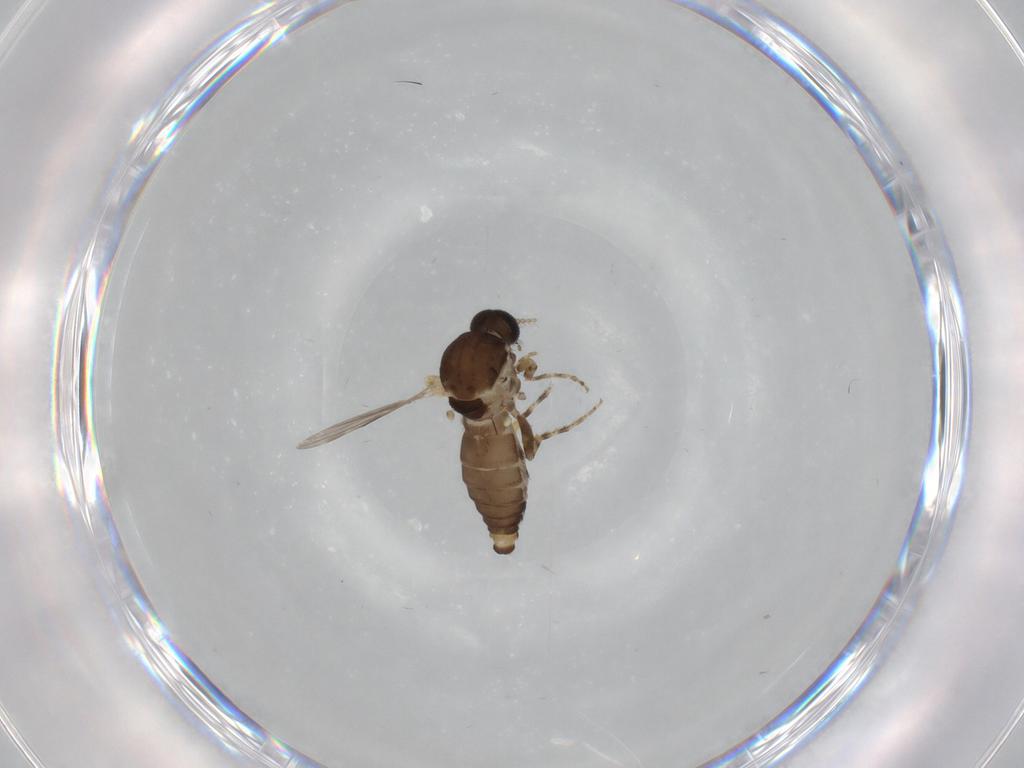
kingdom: Animalia
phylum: Arthropoda
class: Insecta
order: Diptera
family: Ceratopogonidae
